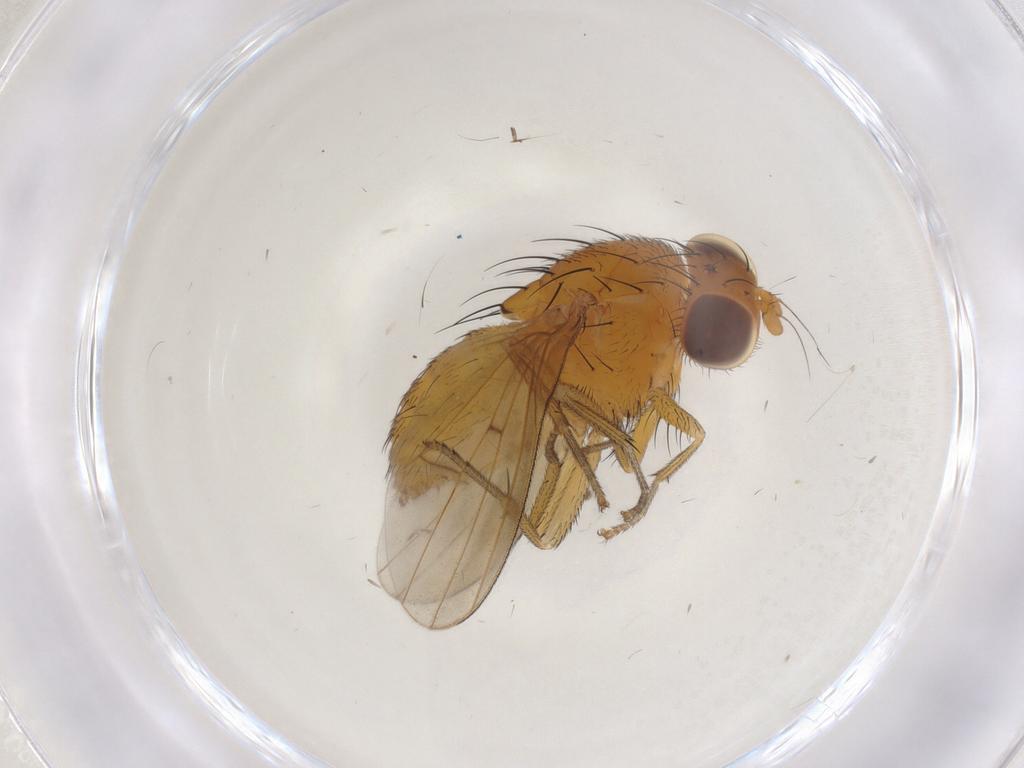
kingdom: Animalia
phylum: Arthropoda
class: Insecta
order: Diptera
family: Cecidomyiidae
